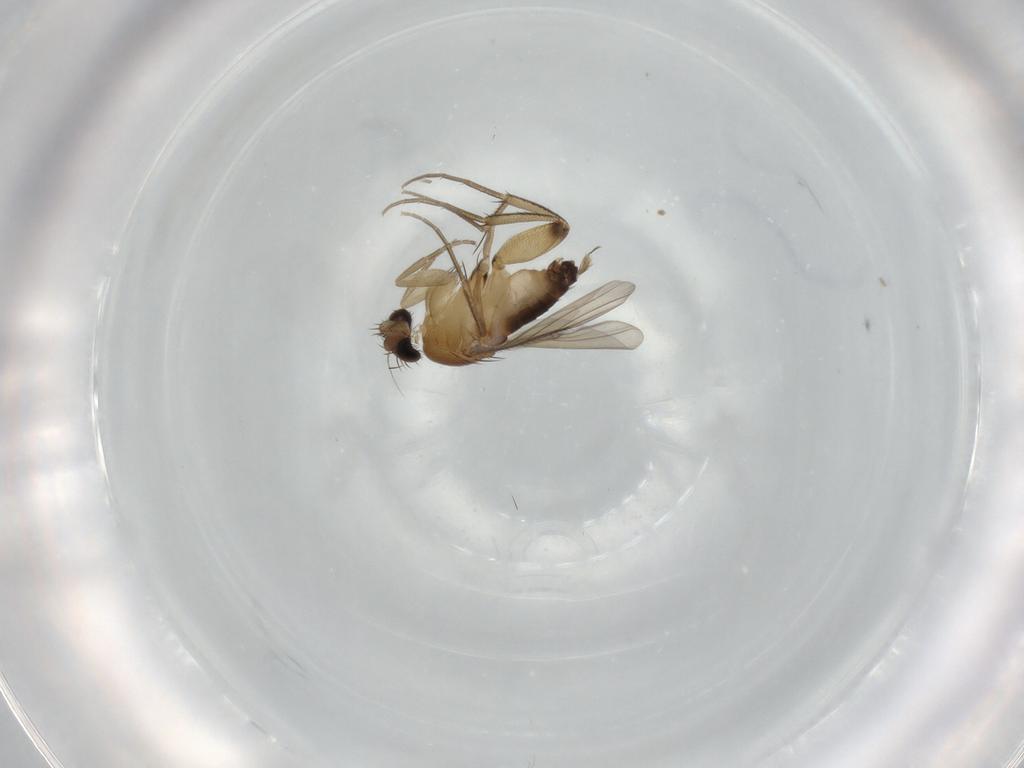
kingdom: Animalia
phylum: Arthropoda
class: Insecta
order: Diptera
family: Phoridae
